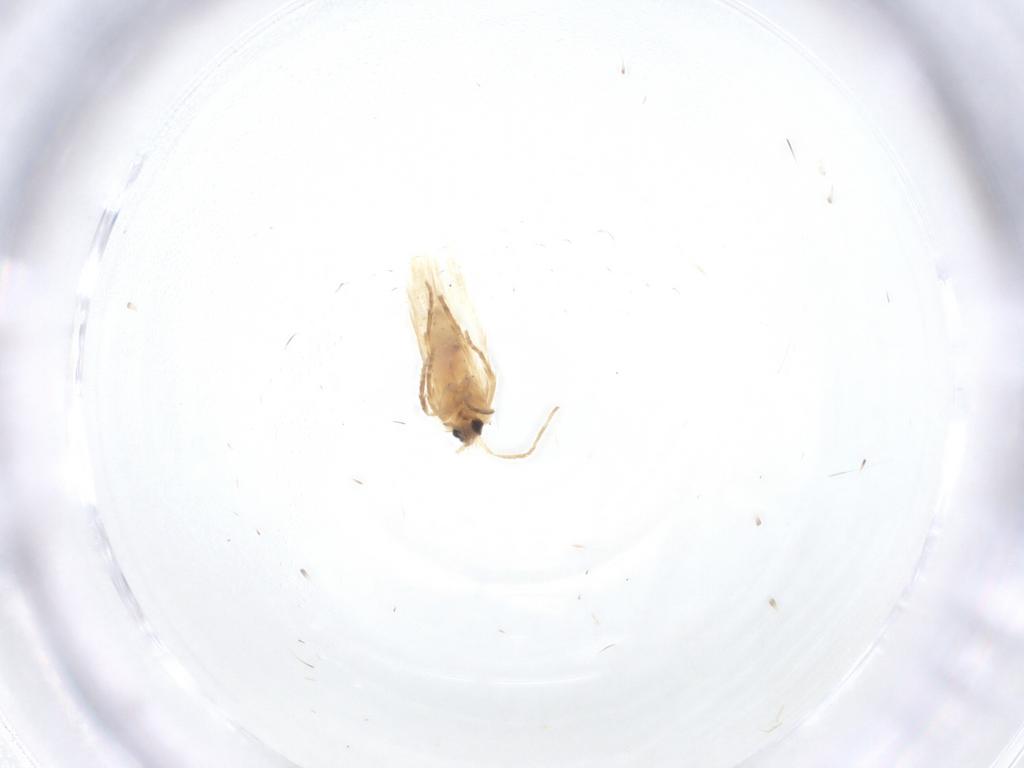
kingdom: Animalia
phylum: Arthropoda
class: Insecta
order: Lepidoptera
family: Nepticulidae
